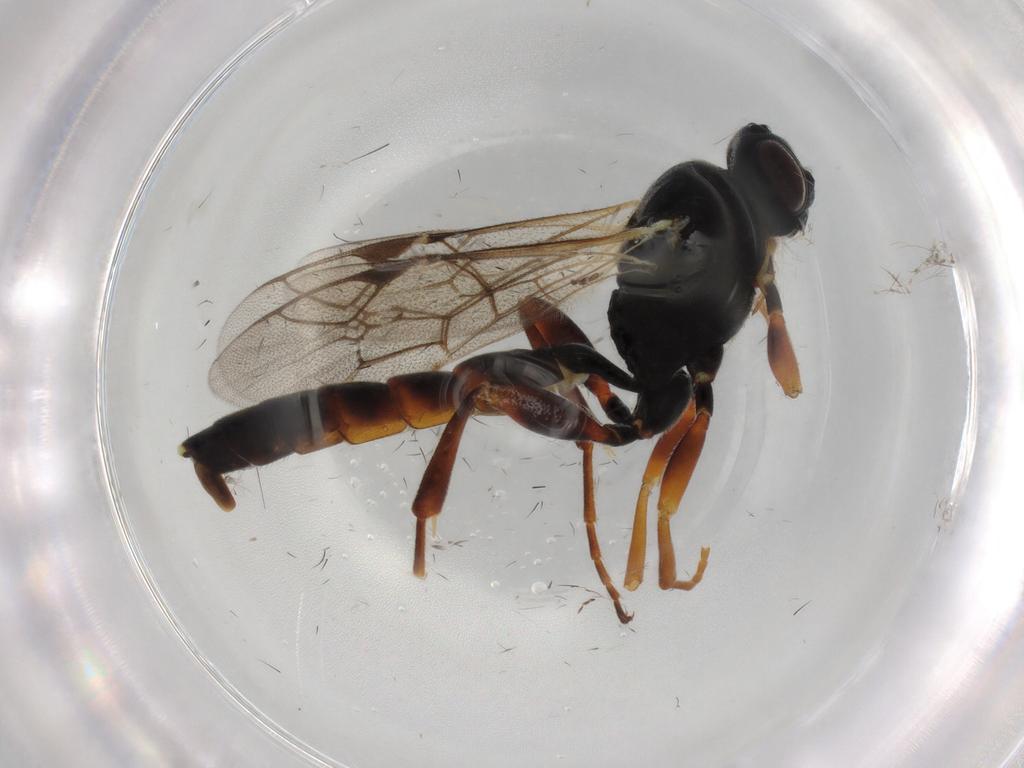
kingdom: Animalia
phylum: Arthropoda
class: Insecta
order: Hymenoptera
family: Ichneumonidae
